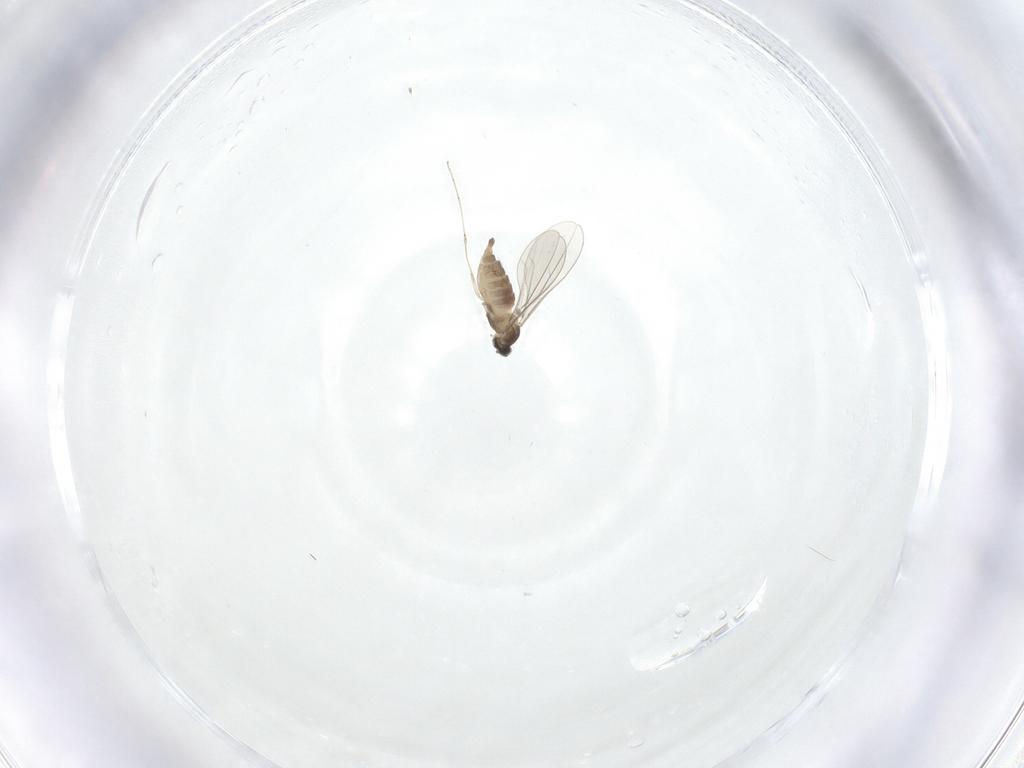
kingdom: Animalia
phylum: Arthropoda
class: Insecta
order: Diptera
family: Cecidomyiidae
